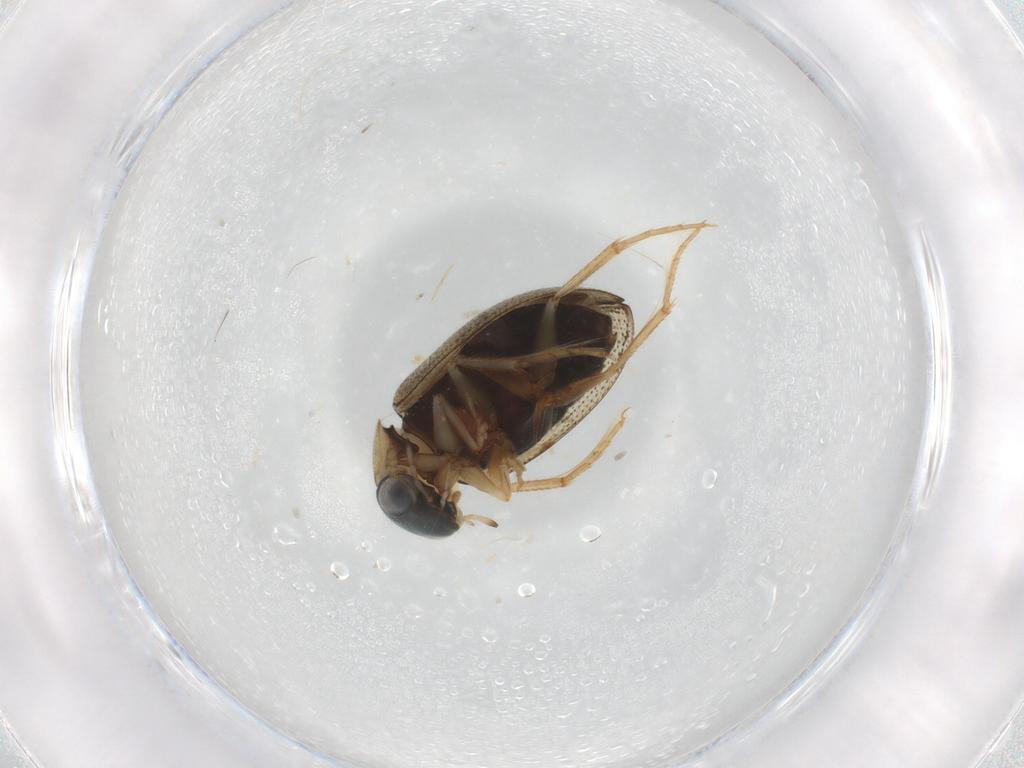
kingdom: Animalia
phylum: Arthropoda
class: Insecta
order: Coleoptera
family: Hydrophilidae
